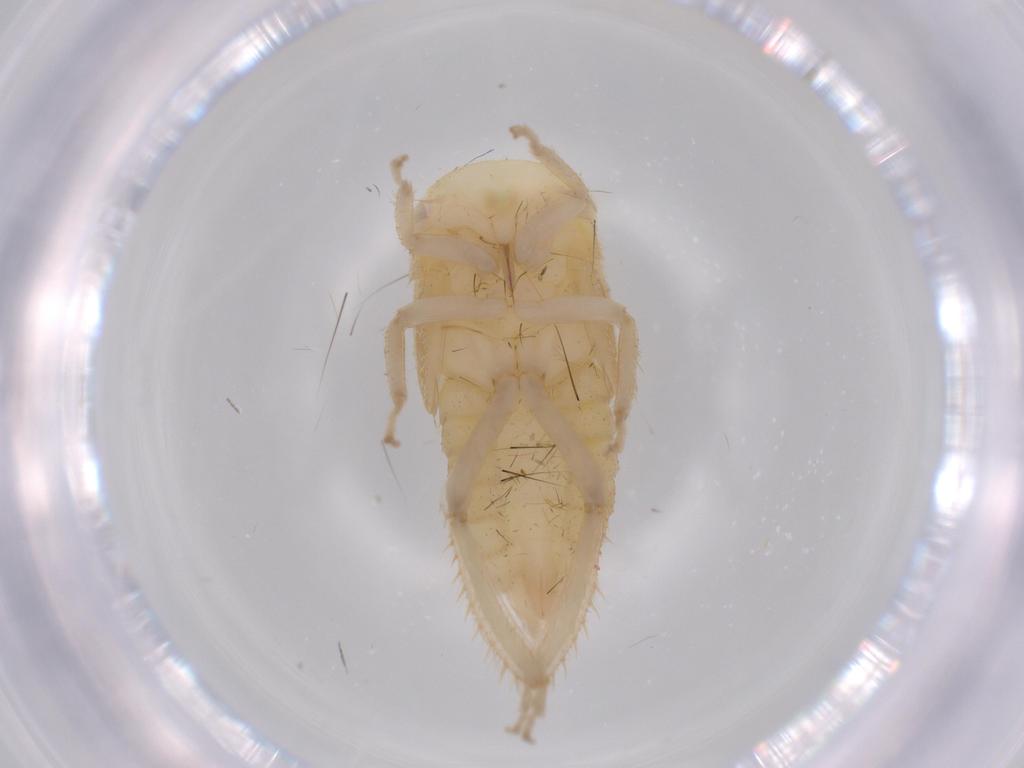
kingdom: Animalia
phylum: Arthropoda
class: Insecta
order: Hemiptera
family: Cicadellidae
